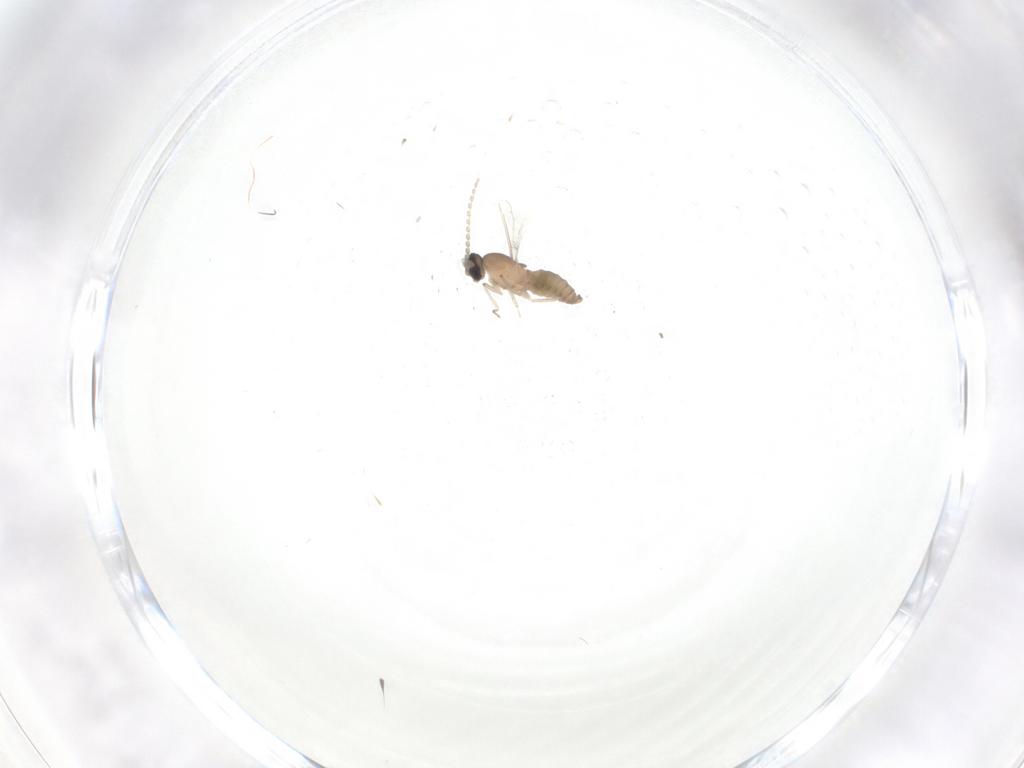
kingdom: Animalia
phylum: Arthropoda
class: Insecta
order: Diptera
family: Cecidomyiidae
